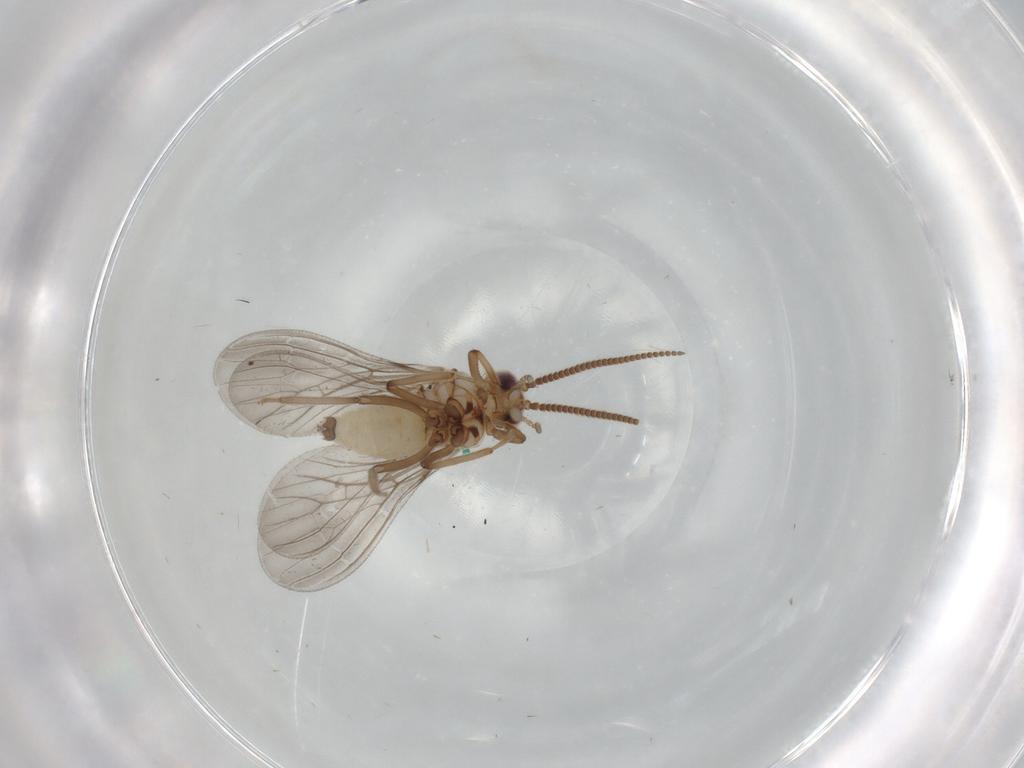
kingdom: Animalia
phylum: Arthropoda
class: Insecta
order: Neuroptera
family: Coniopterygidae
